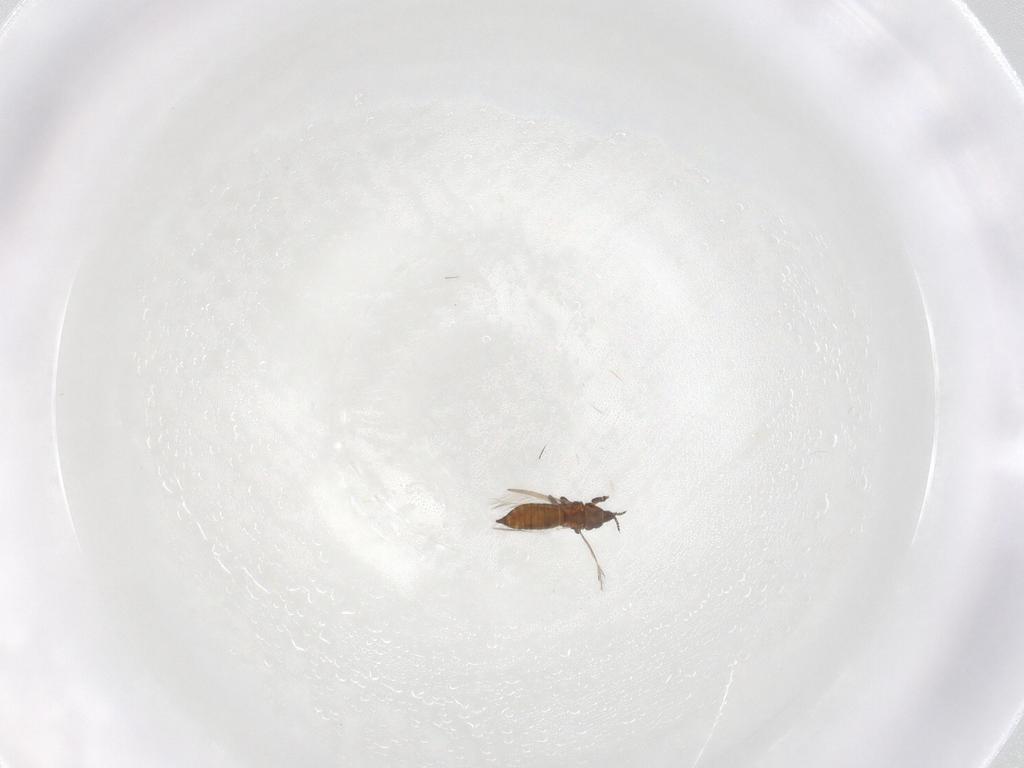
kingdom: Animalia
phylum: Arthropoda
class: Insecta
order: Thysanoptera
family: Thripidae
